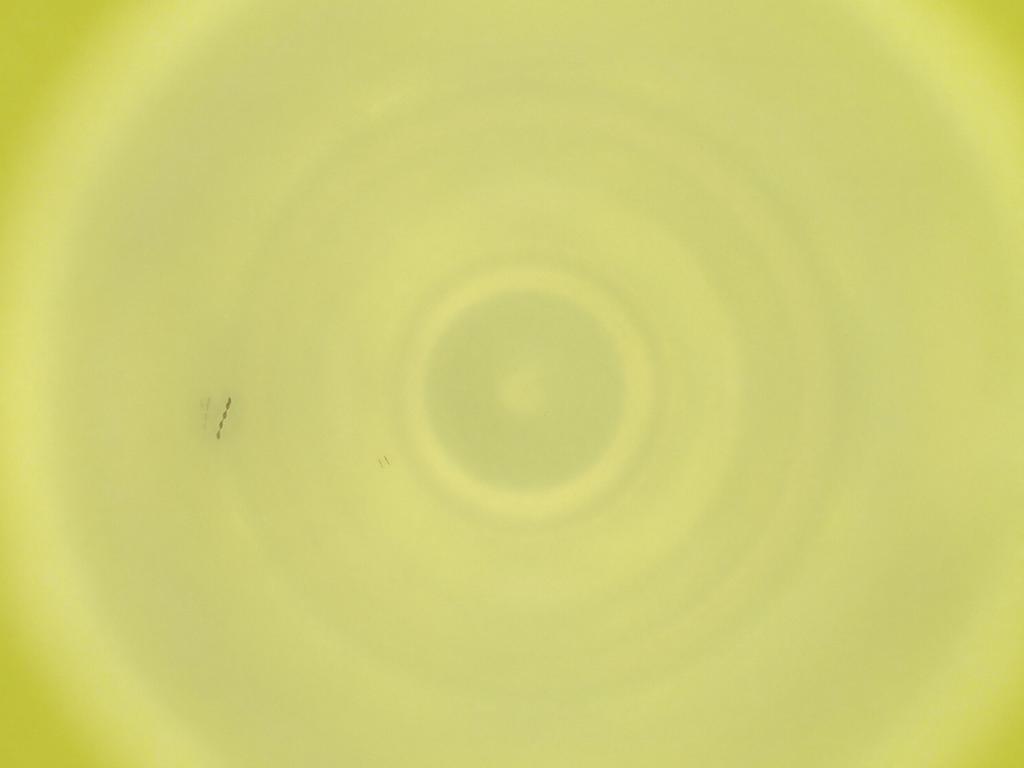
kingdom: Animalia
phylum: Arthropoda
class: Insecta
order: Diptera
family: Cecidomyiidae
